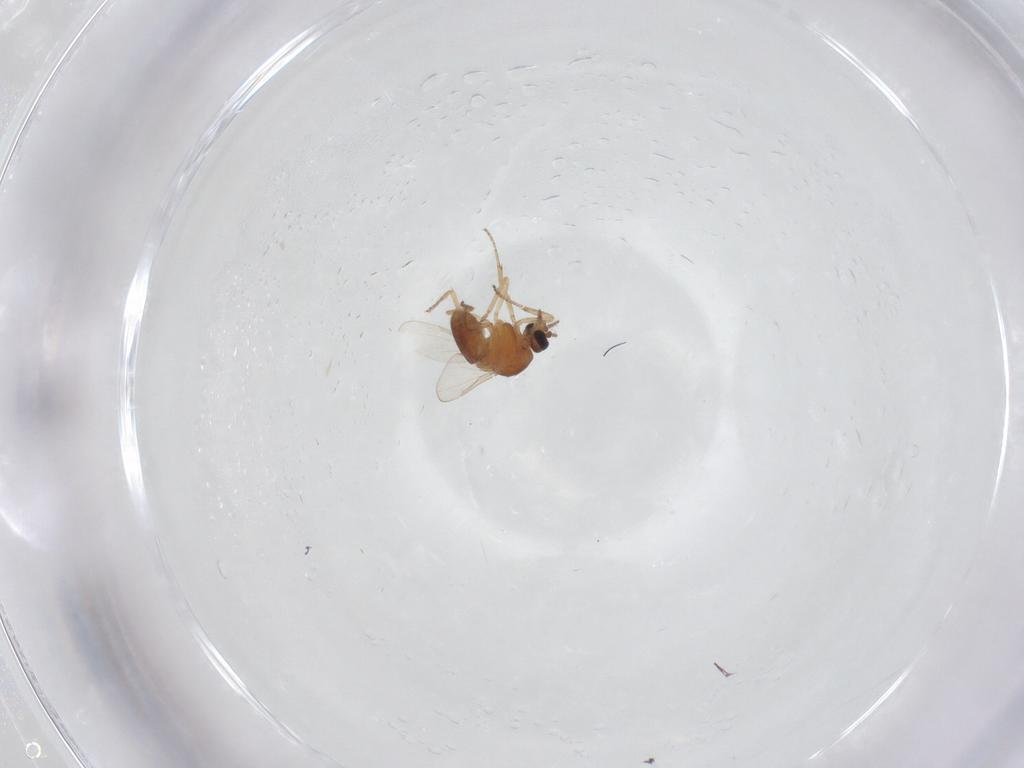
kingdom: Animalia
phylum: Arthropoda
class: Insecta
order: Diptera
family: Ceratopogonidae
